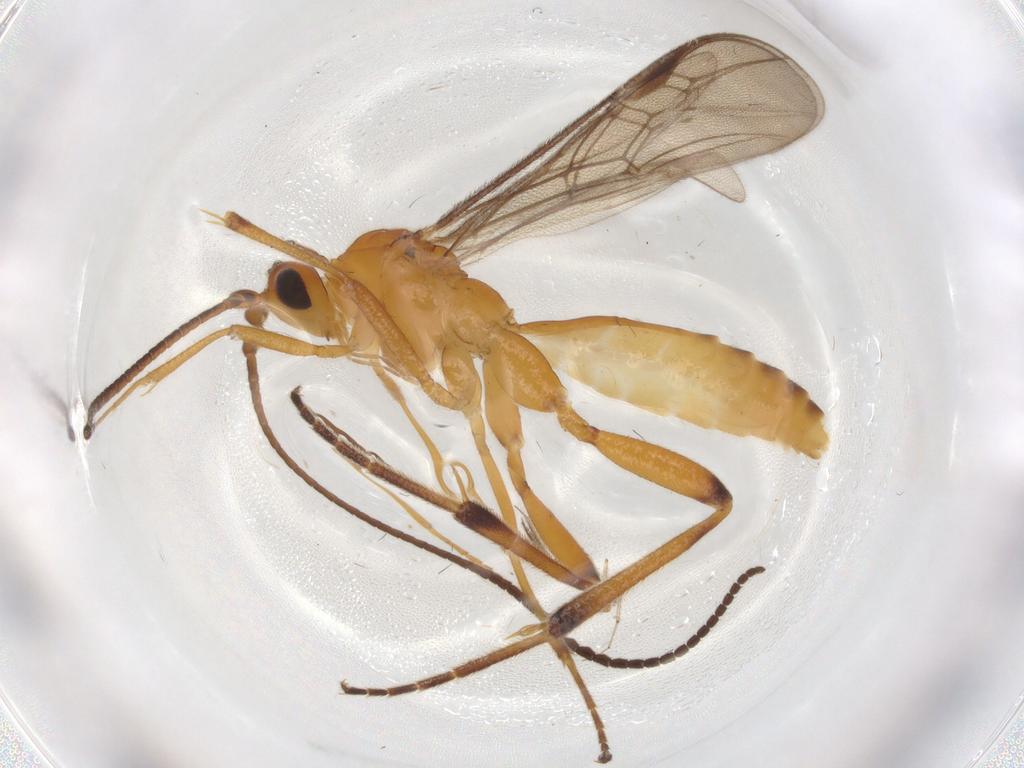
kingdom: Animalia
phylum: Arthropoda
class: Insecta
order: Hymenoptera
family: Braconidae
